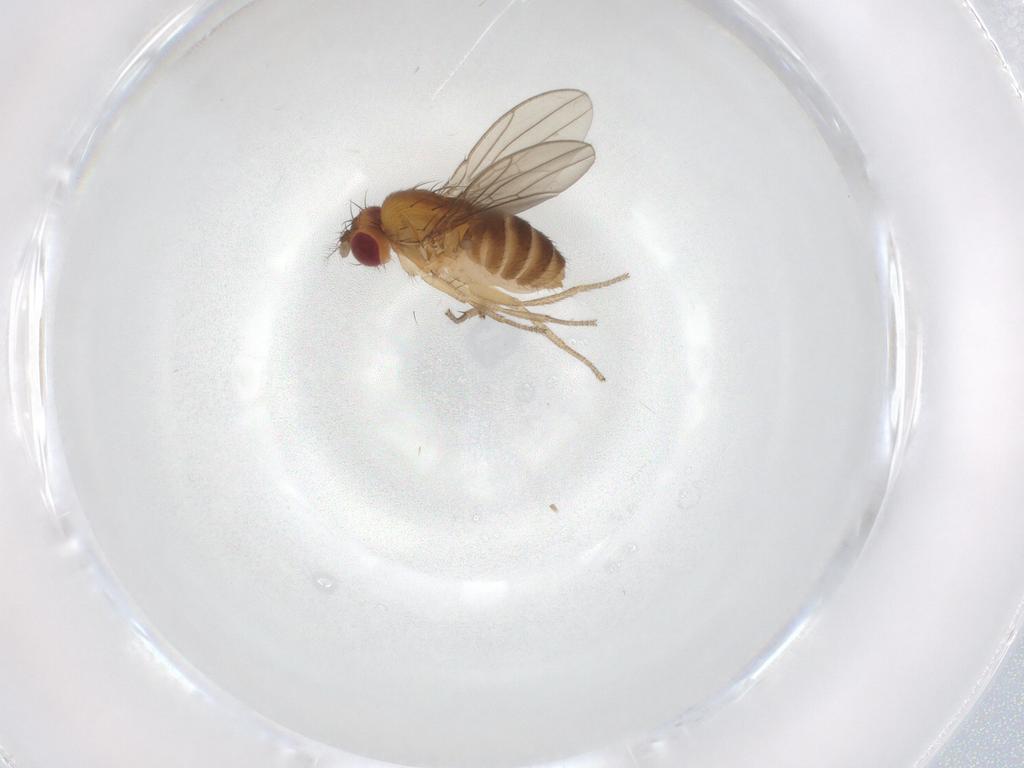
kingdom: Animalia
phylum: Arthropoda
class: Insecta
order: Diptera
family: Drosophilidae
